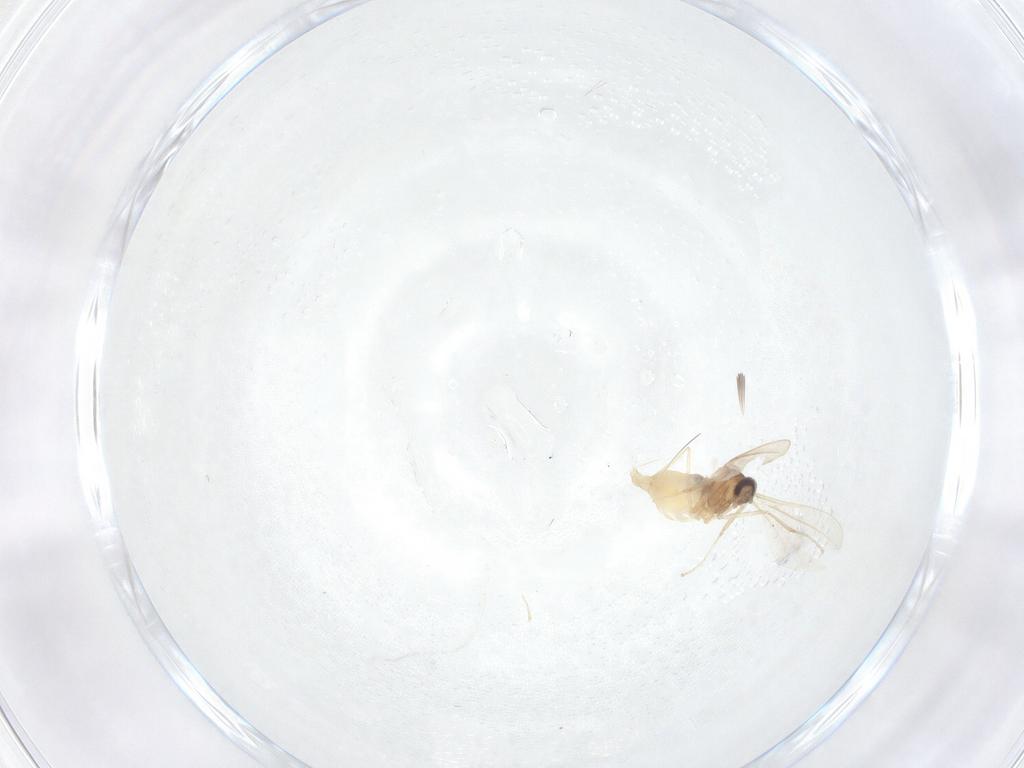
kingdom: Animalia
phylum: Arthropoda
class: Insecta
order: Diptera
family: Cecidomyiidae
